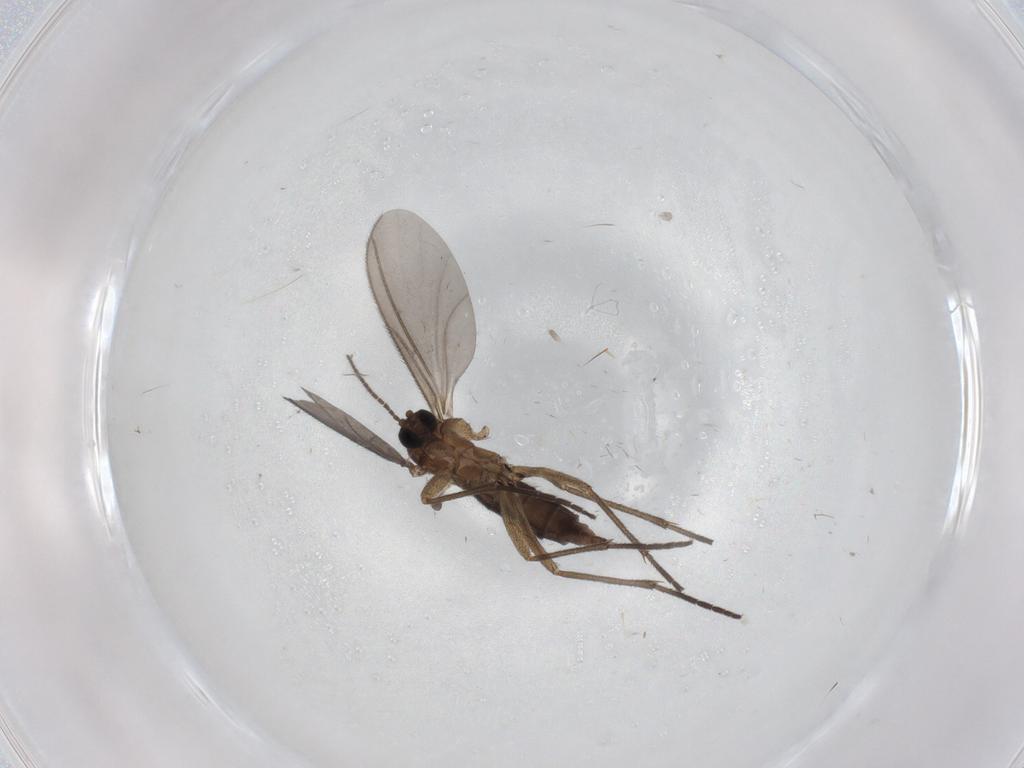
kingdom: Animalia
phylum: Arthropoda
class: Insecta
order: Diptera
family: Sciaridae
